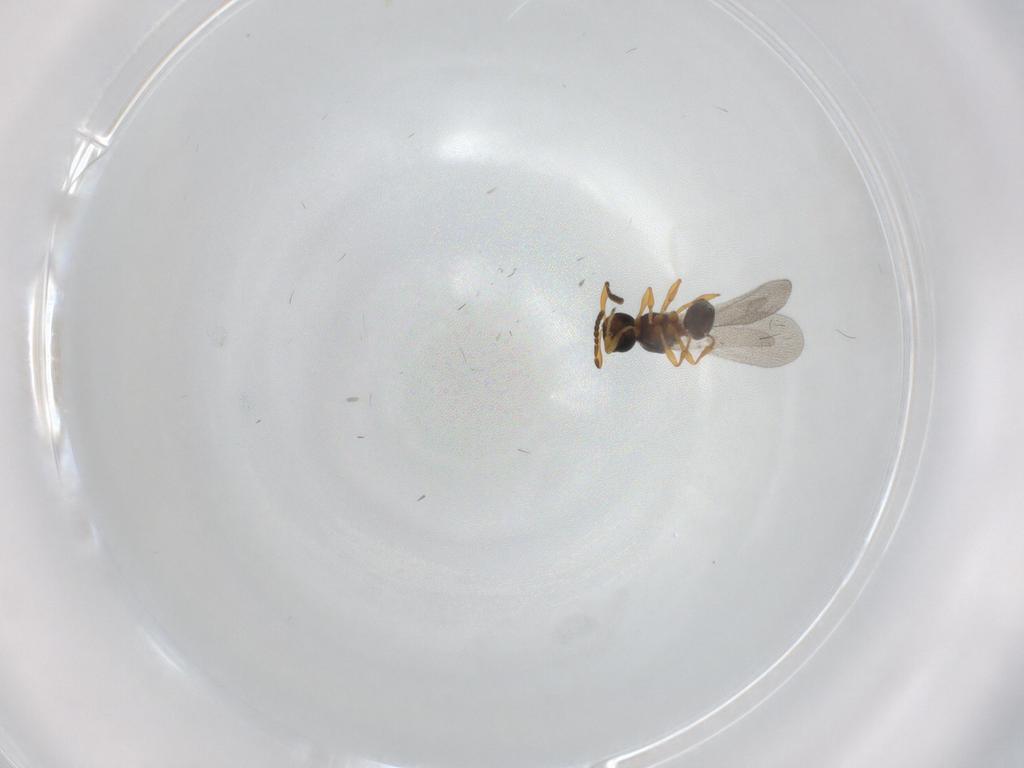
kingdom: Animalia
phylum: Arthropoda
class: Insecta
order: Diptera
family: Mythicomyiidae
